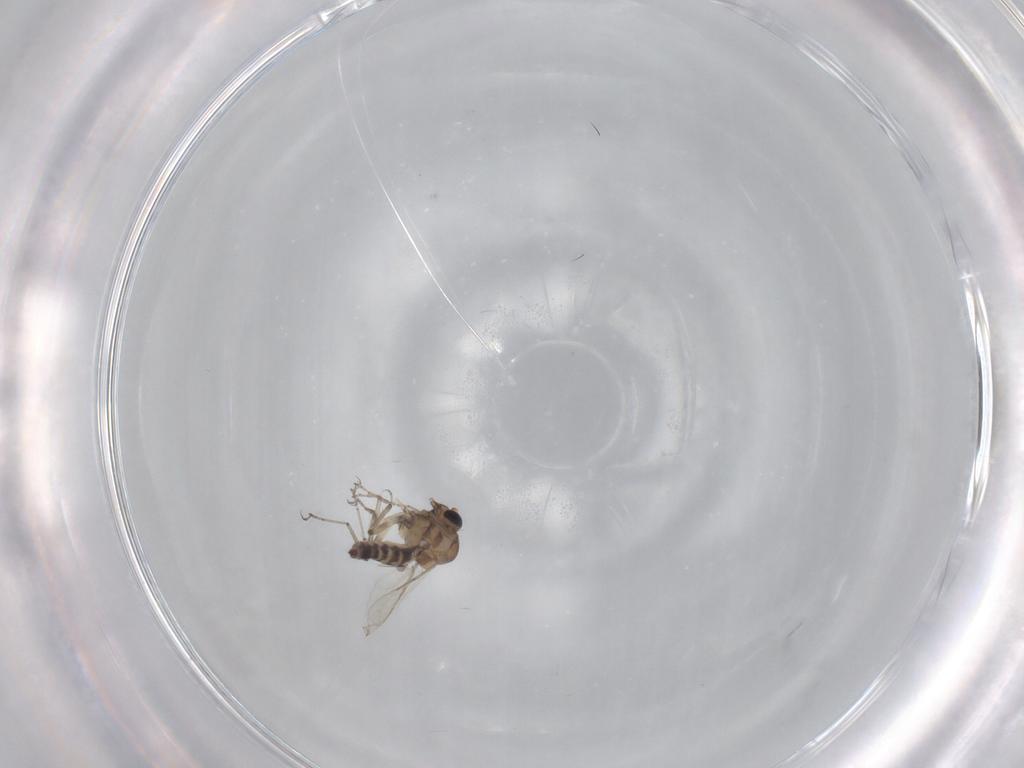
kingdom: Animalia
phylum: Arthropoda
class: Insecta
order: Diptera
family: Ceratopogonidae
